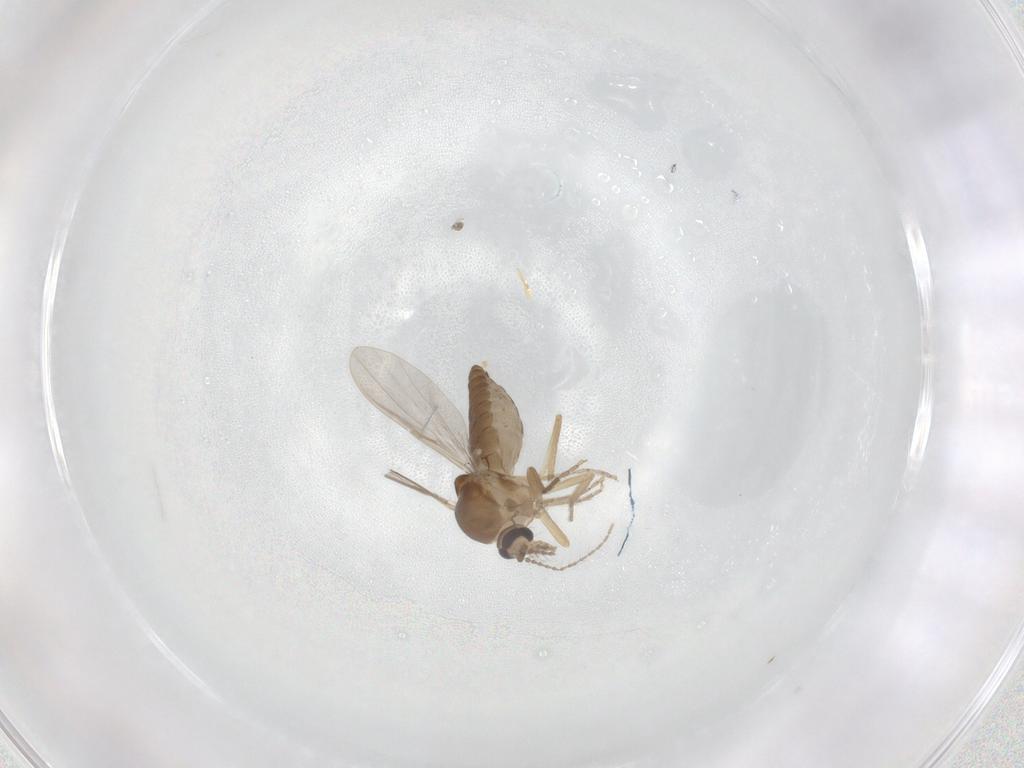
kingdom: Animalia
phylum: Arthropoda
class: Insecta
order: Diptera
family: Ceratopogonidae
